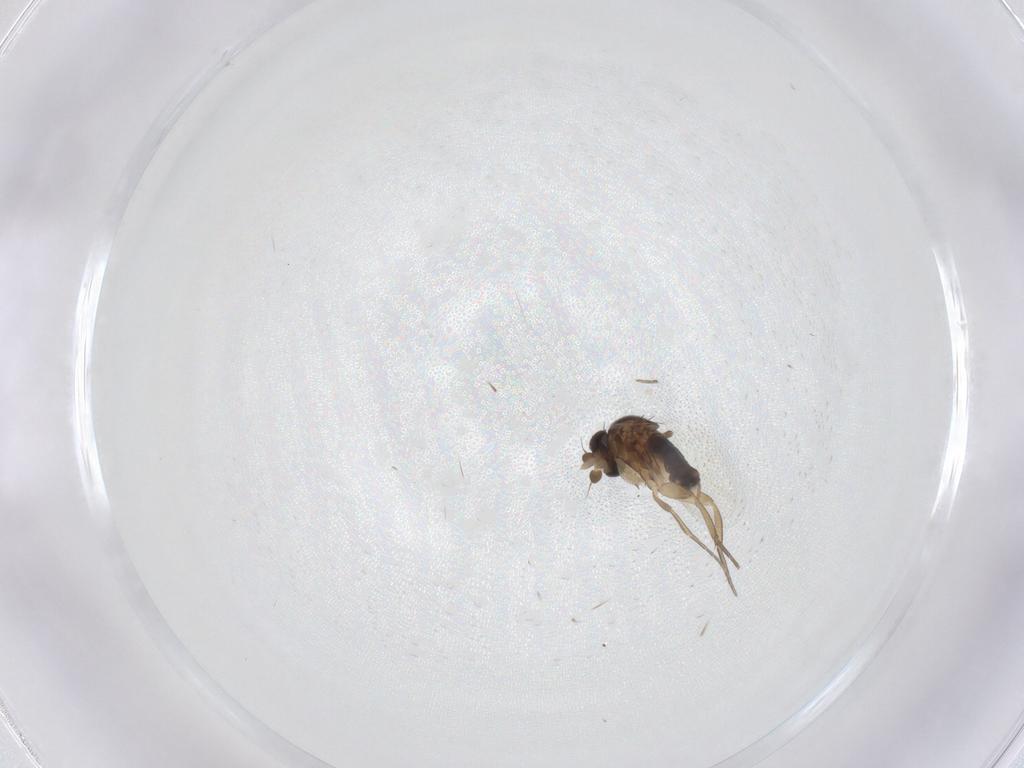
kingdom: Animalia
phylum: Arthropoda
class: Insecta
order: Diptera
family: Phoridae
